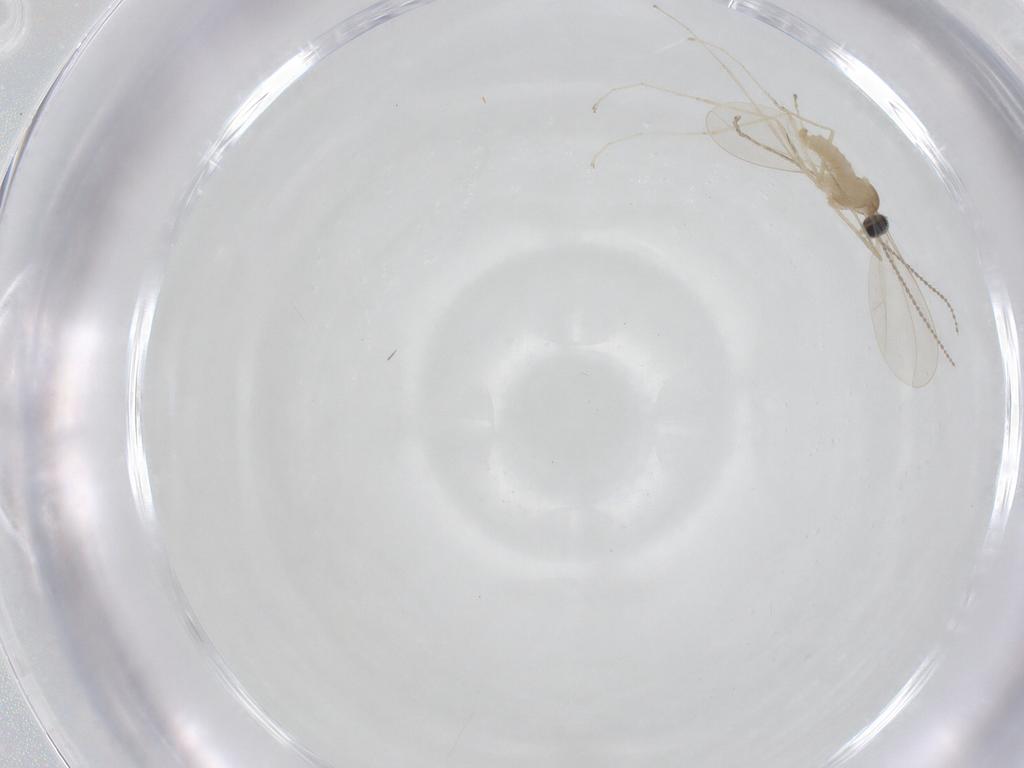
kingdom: Animalia
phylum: Arthropoda
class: Insecta
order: Diptera
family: Chironomidae
